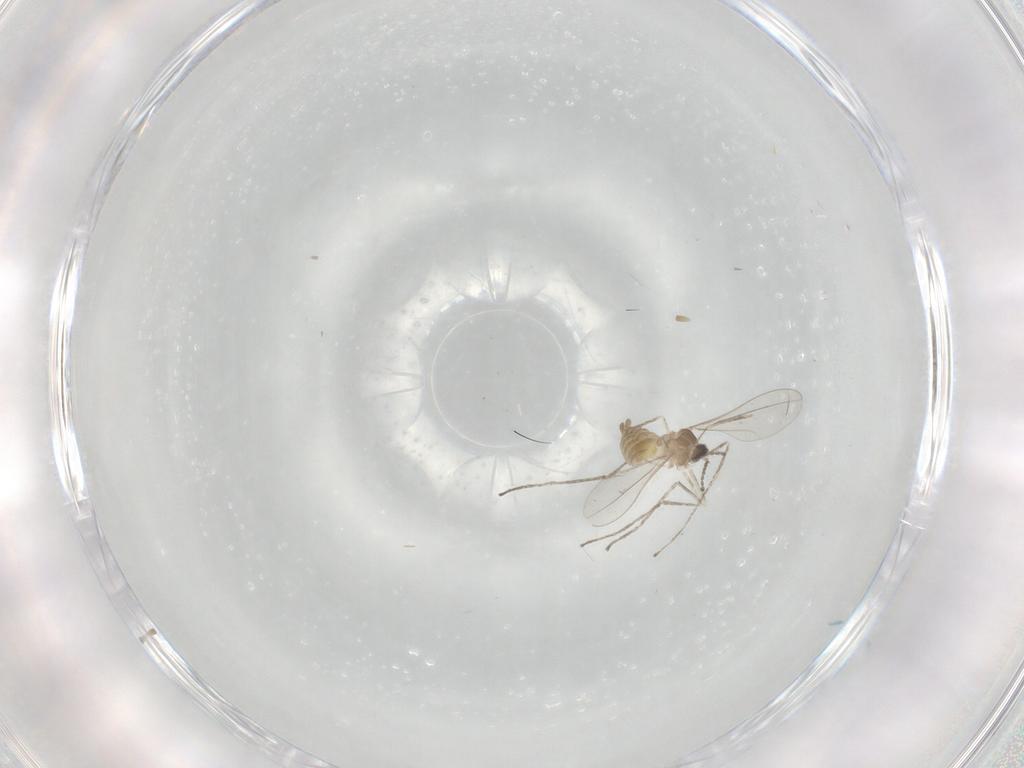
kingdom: Animalia
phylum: Arthropoda
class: Insecta
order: Diptera
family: Cecidomyiidae
